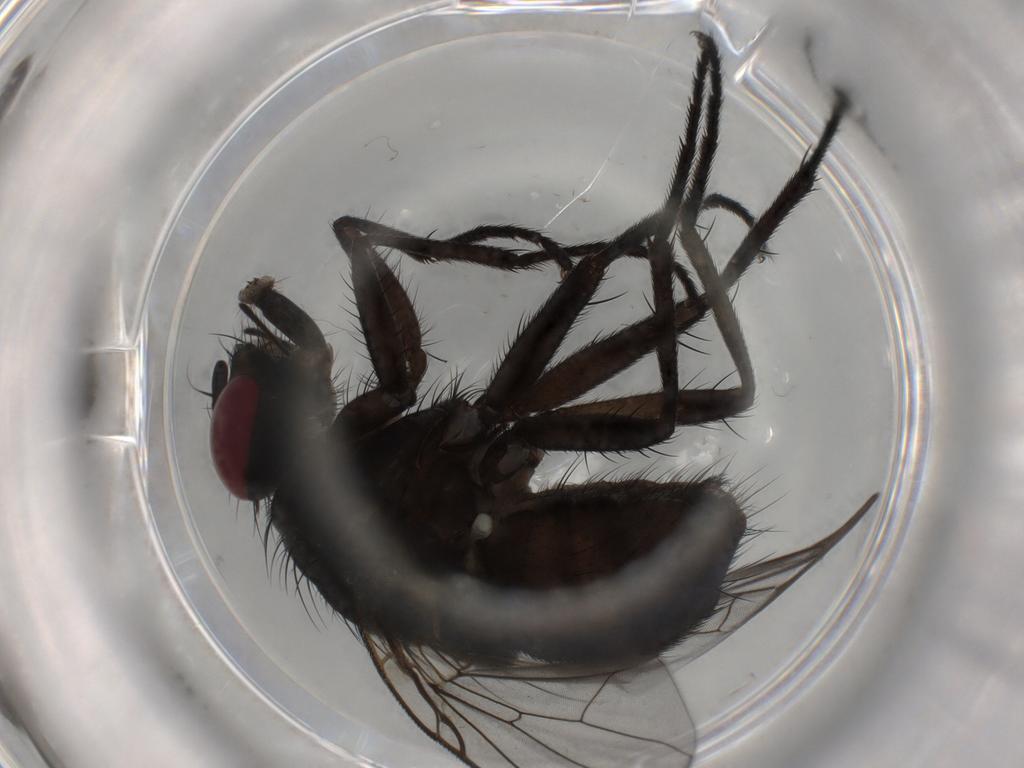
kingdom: Animalia
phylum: Arthropoda
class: Insecta
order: Diptera
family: Muscidae
